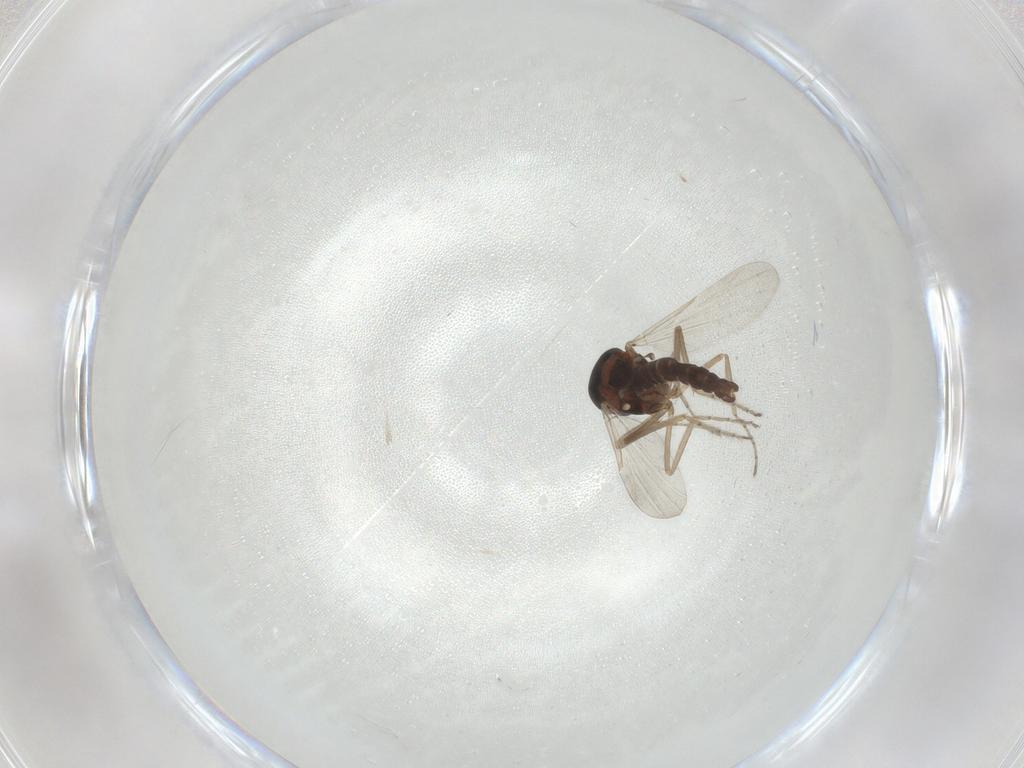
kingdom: Animalia
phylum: Arthropoda
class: Insecta
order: Diptera
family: Ceratopogonidae
